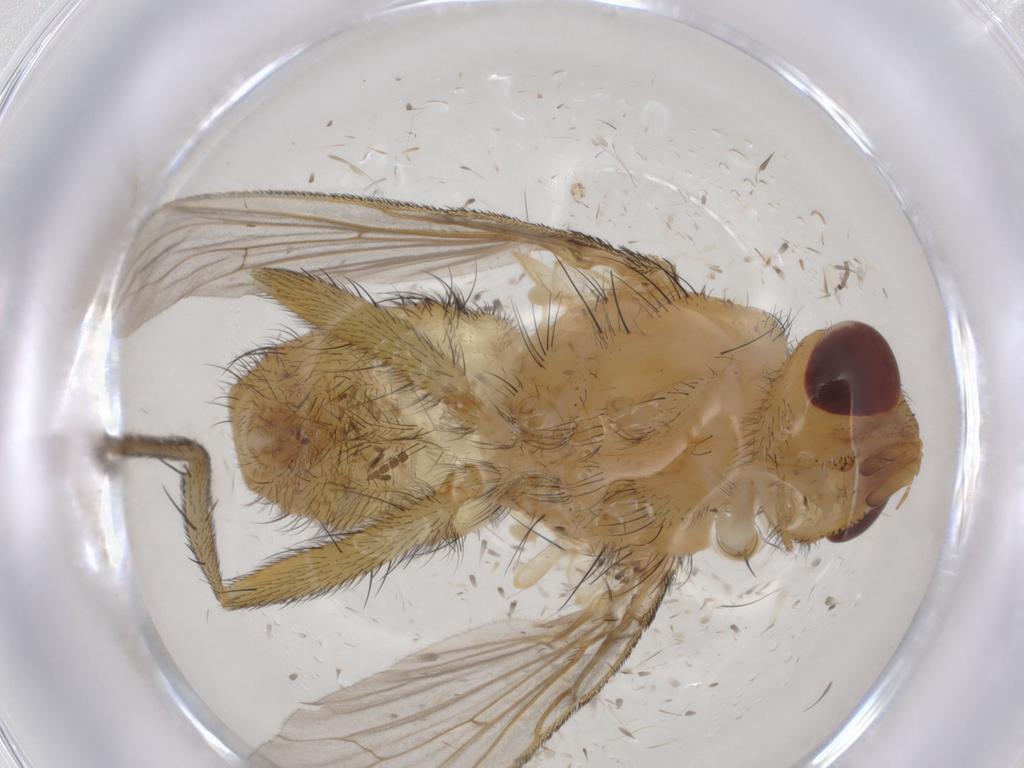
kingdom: Animalia
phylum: Arthropoda
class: Insecta
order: Diptera
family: Tachinidae
